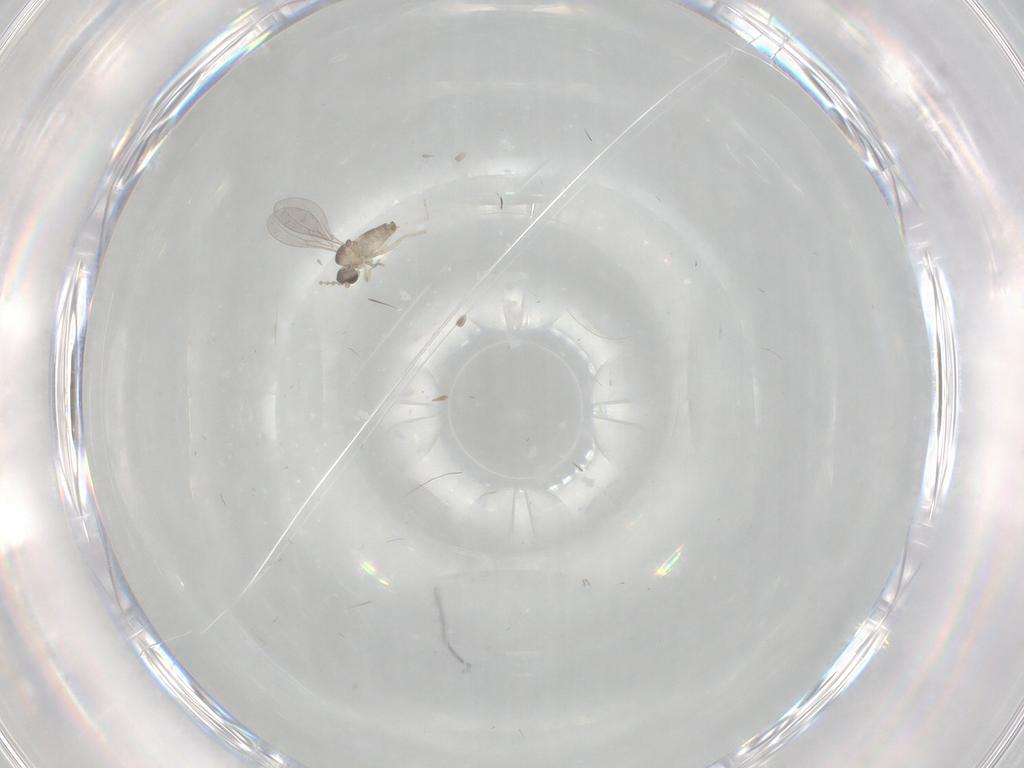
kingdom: Animalia
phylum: Arthropoda
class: Insecta
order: Diptera
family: Cecidomyiidae
